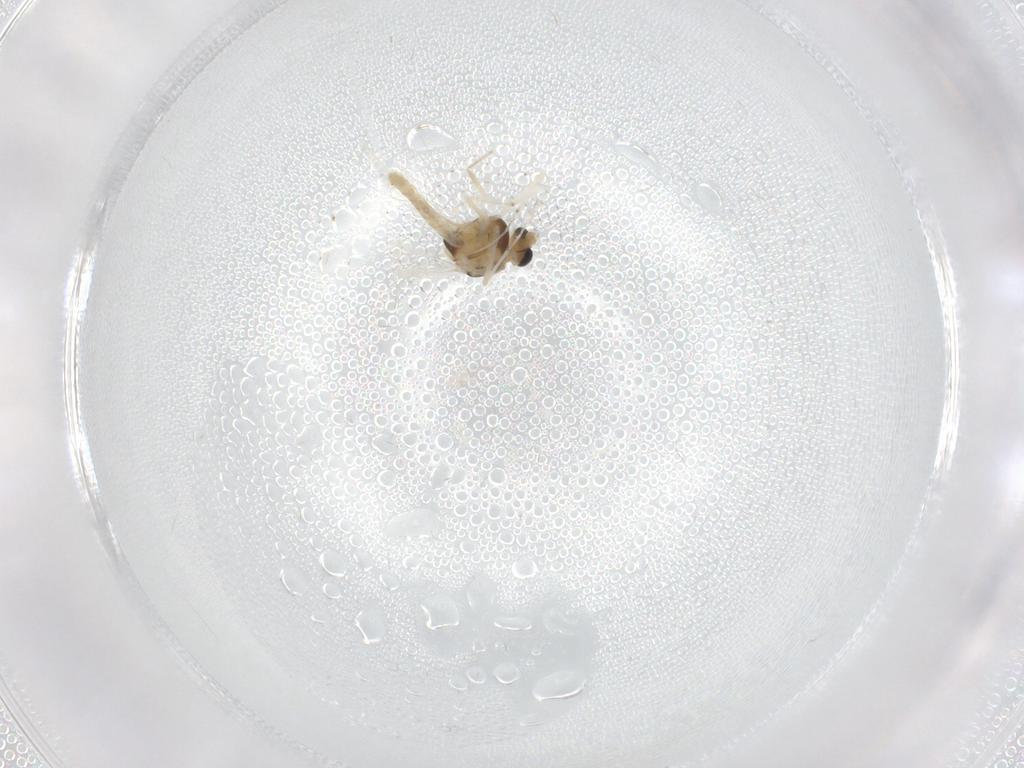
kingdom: Animalia
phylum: Arthropoda
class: Insecta
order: Diptera
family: Chironomidae
